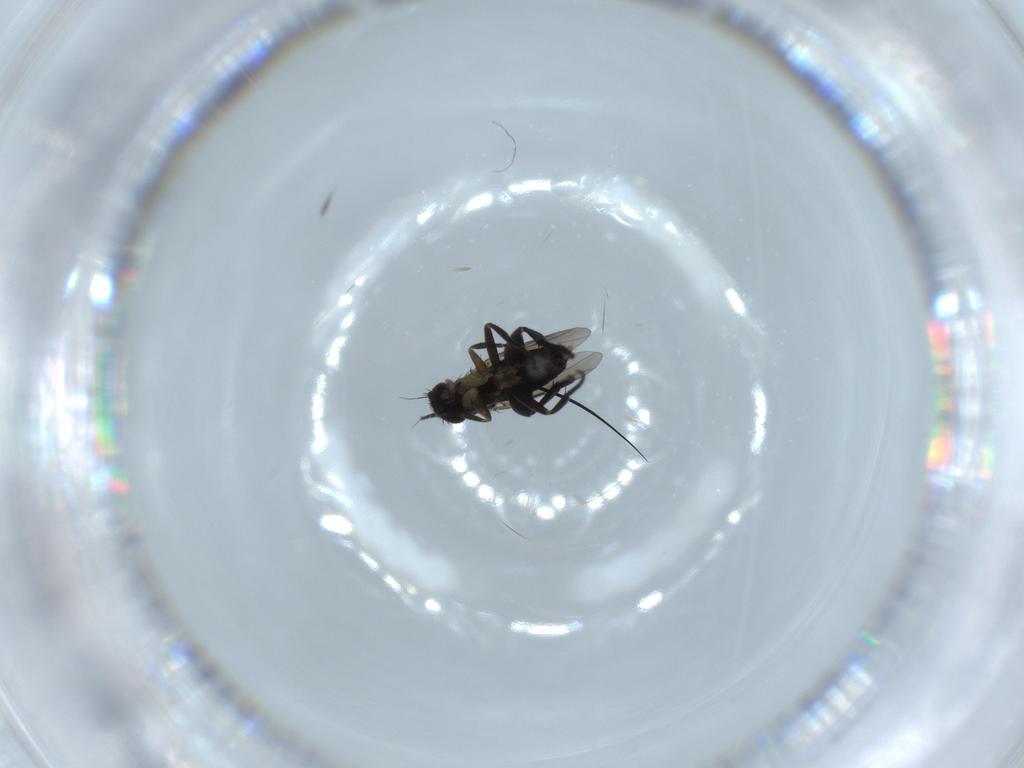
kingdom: Animalia
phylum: Arthropoda
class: Insecta
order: Diptera
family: Phoridae
